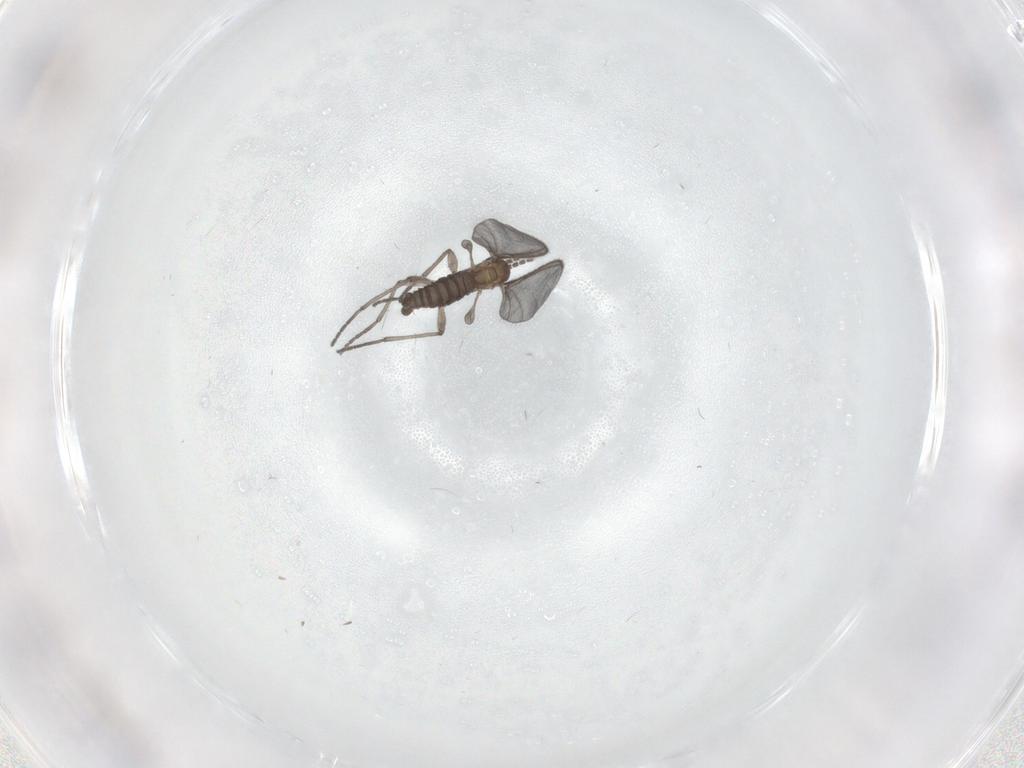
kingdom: Animalia
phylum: Arthropoda
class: Insecta
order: Diptera
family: Sciaridae
